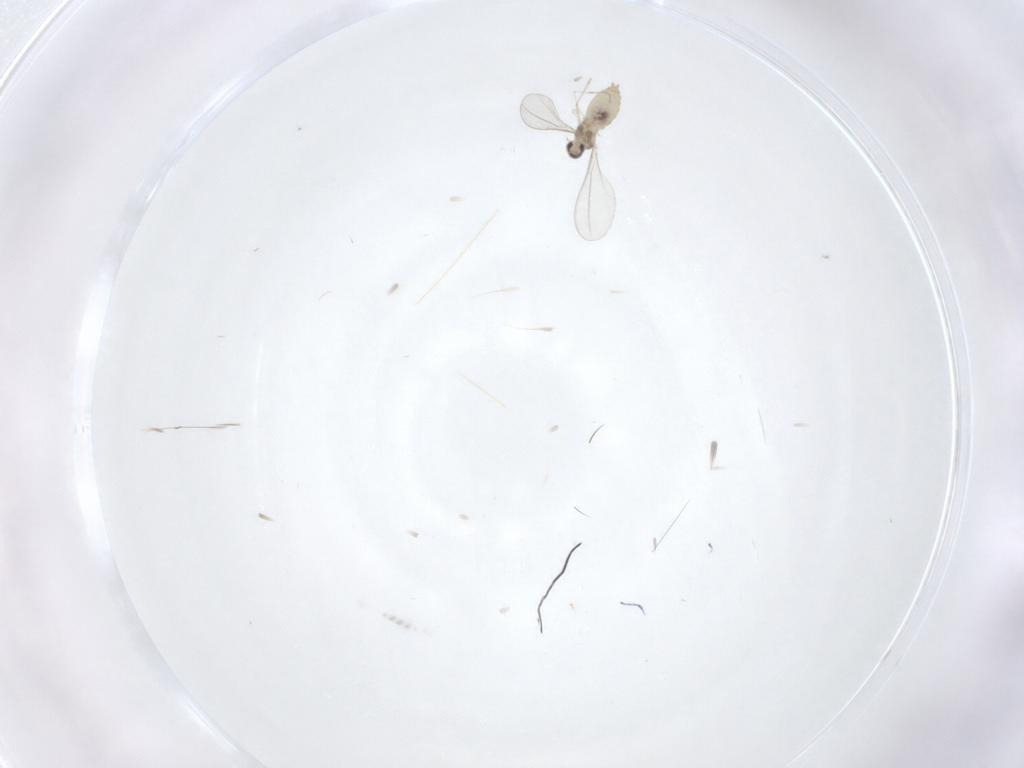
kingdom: Animalia
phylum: Arthropoda
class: Insecta
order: Diptera
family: Cecidomyiidae
